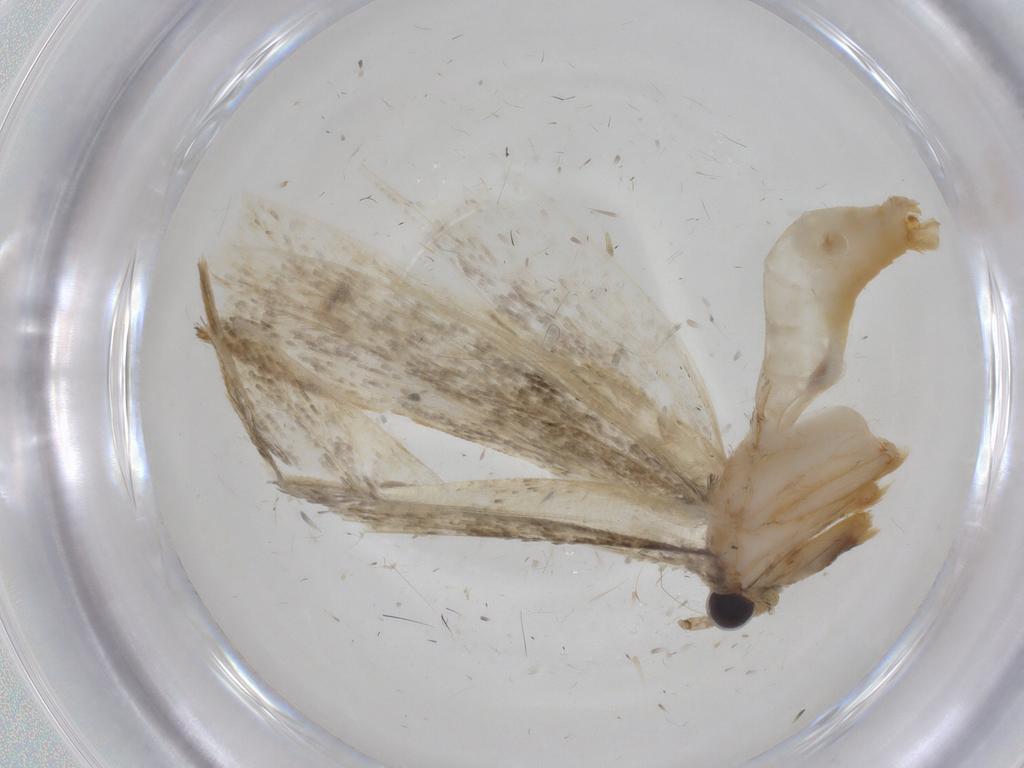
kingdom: Animalia
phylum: Arthropoda
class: Insecta
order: Lepidoptera
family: Tineidae
